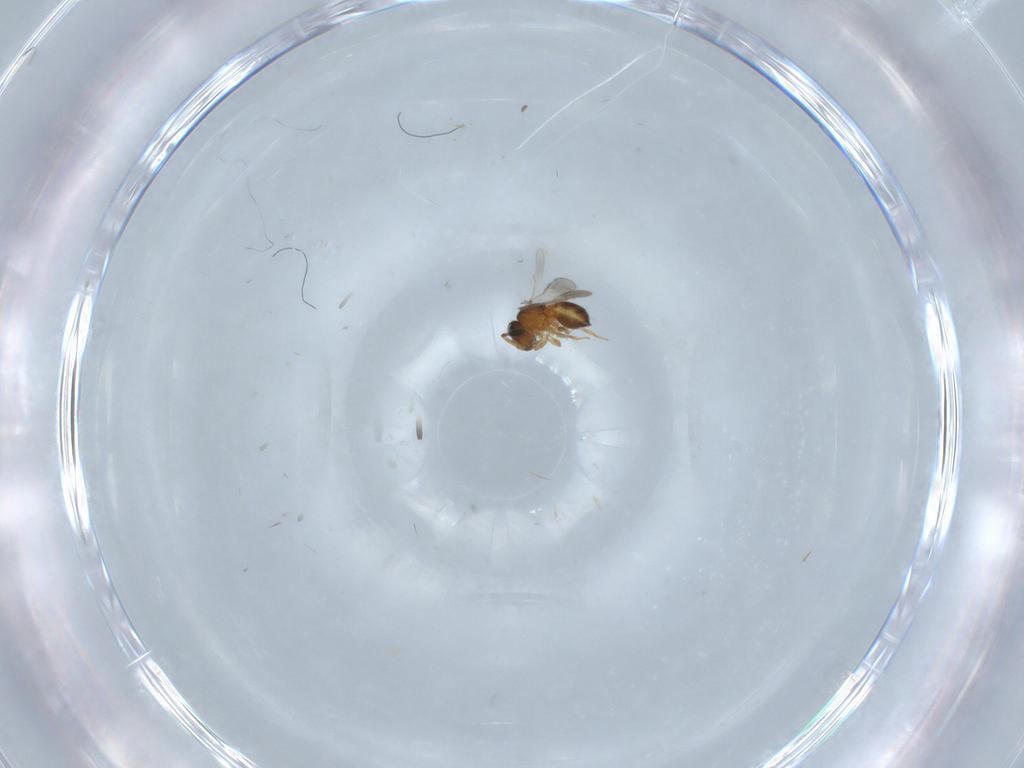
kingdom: Animalia
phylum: Arthropoda
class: Insecta
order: Hymenoptera
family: Scelionidae
